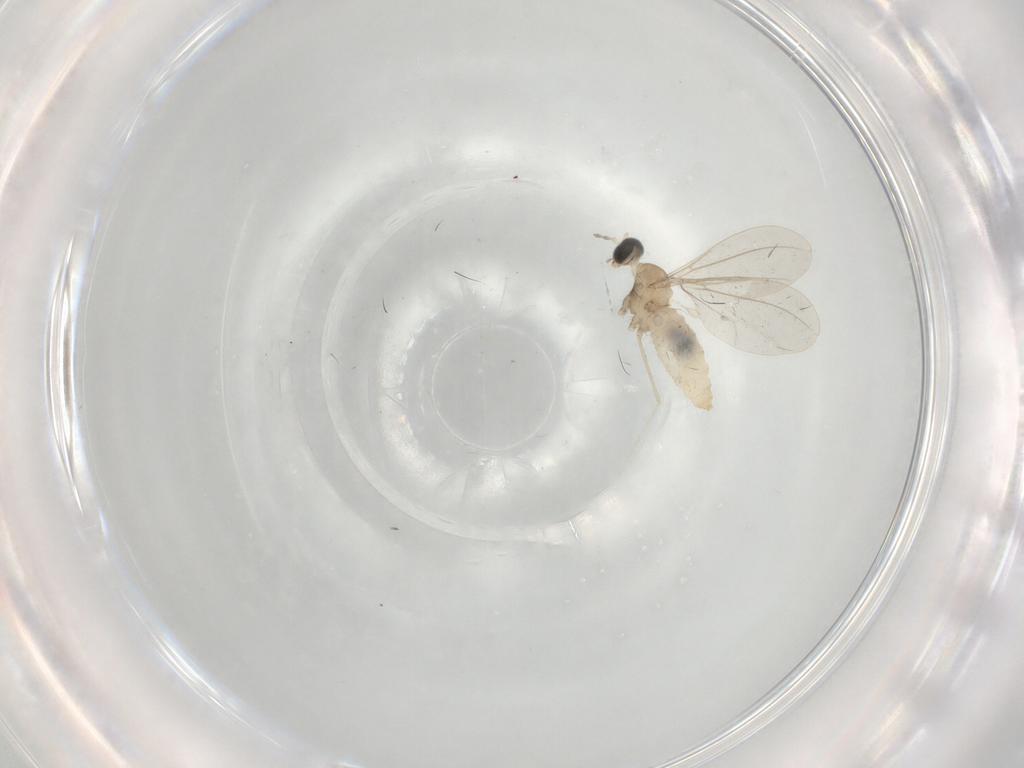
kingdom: Animalia
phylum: Arthropoda
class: Insecta
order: Diptera
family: Cecidomyiidae
